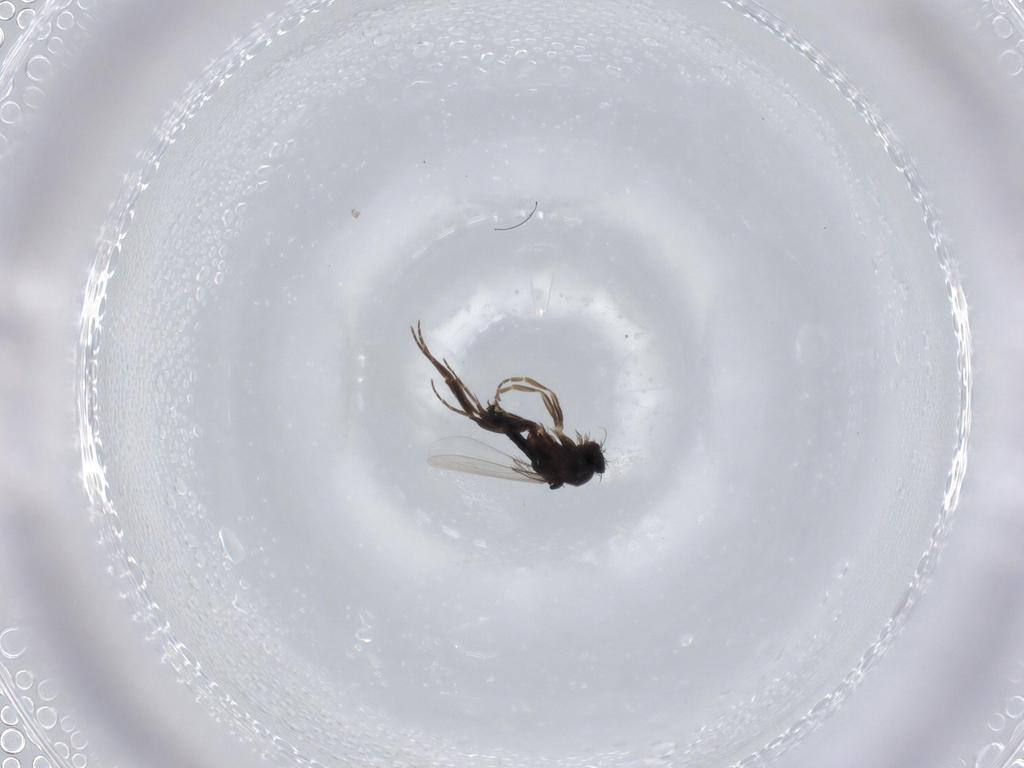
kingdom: Animalia
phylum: Arthropoda
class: Insecta
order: Diptera
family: Phoridae
